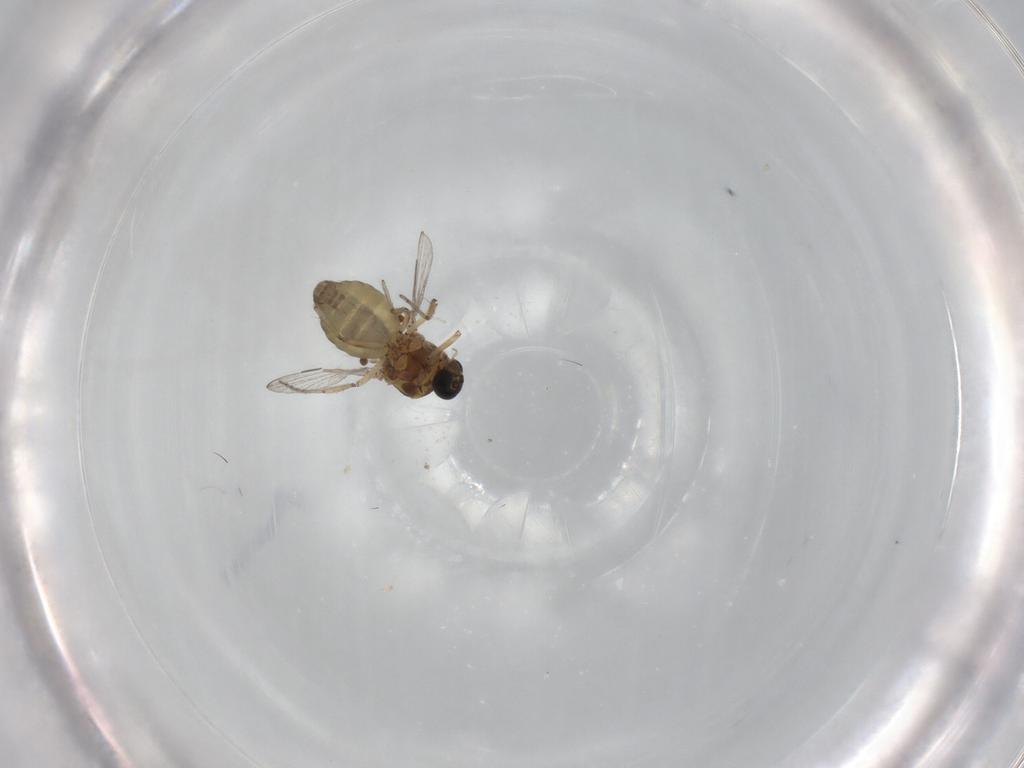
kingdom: Animalia
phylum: Arthropoda
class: Insecta
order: Diptera
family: Ceratopogonidae
